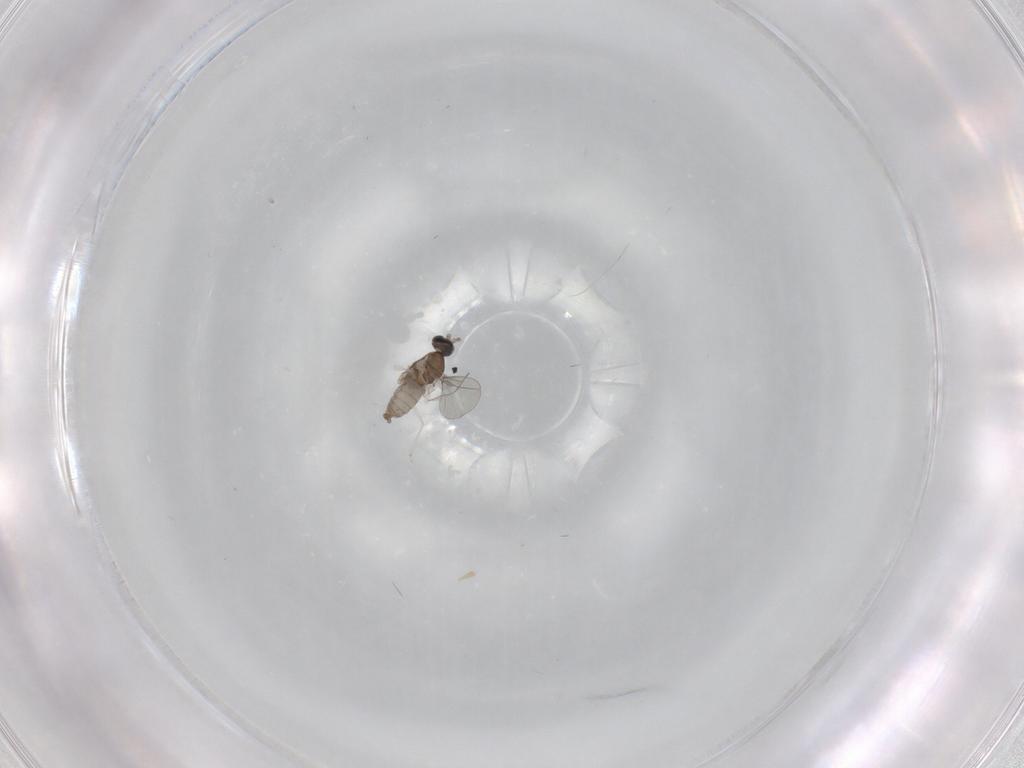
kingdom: Animalia
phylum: Arthropoda
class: Insecta
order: Diptera
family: Cecidomyiidae
